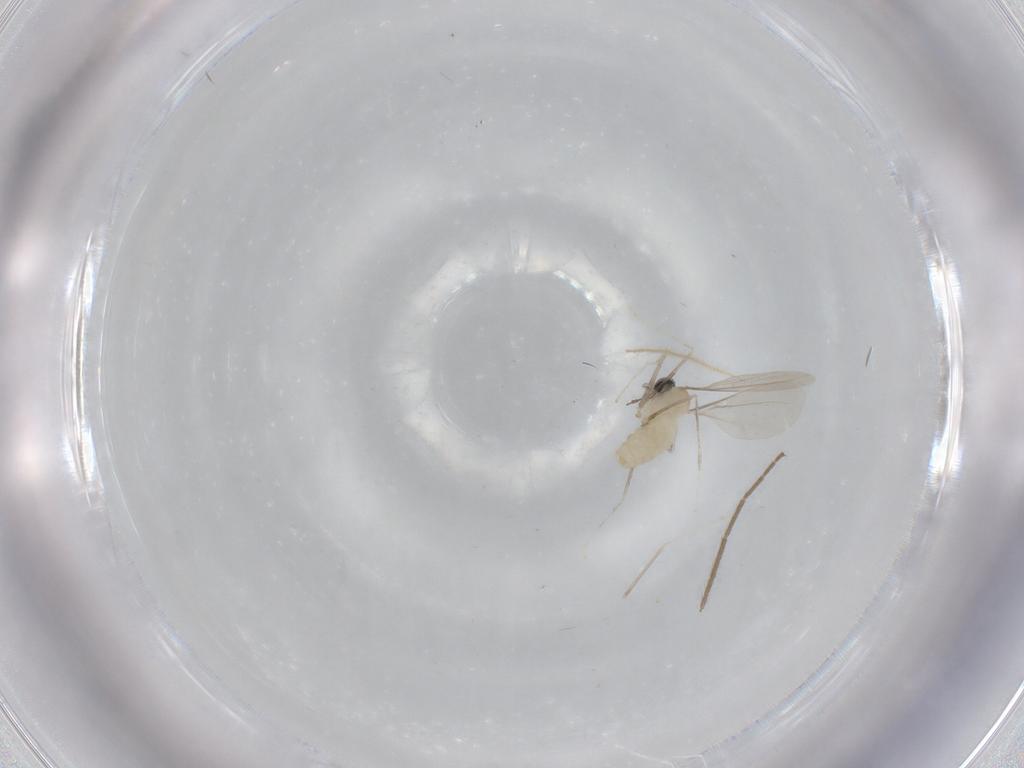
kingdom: Animalia
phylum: Arthropoda
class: Insecta
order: Diptera
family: Cecidomyiidae
